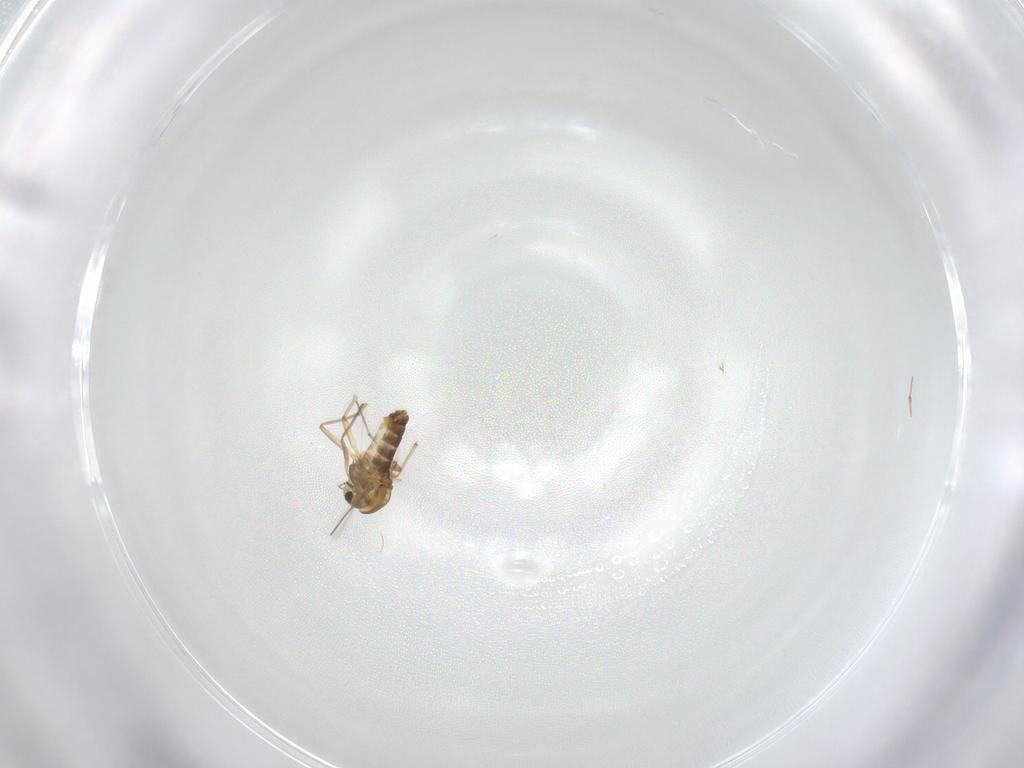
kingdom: Animalia
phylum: Arthropoda
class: Insecta
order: Diptera
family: Chironomidae
